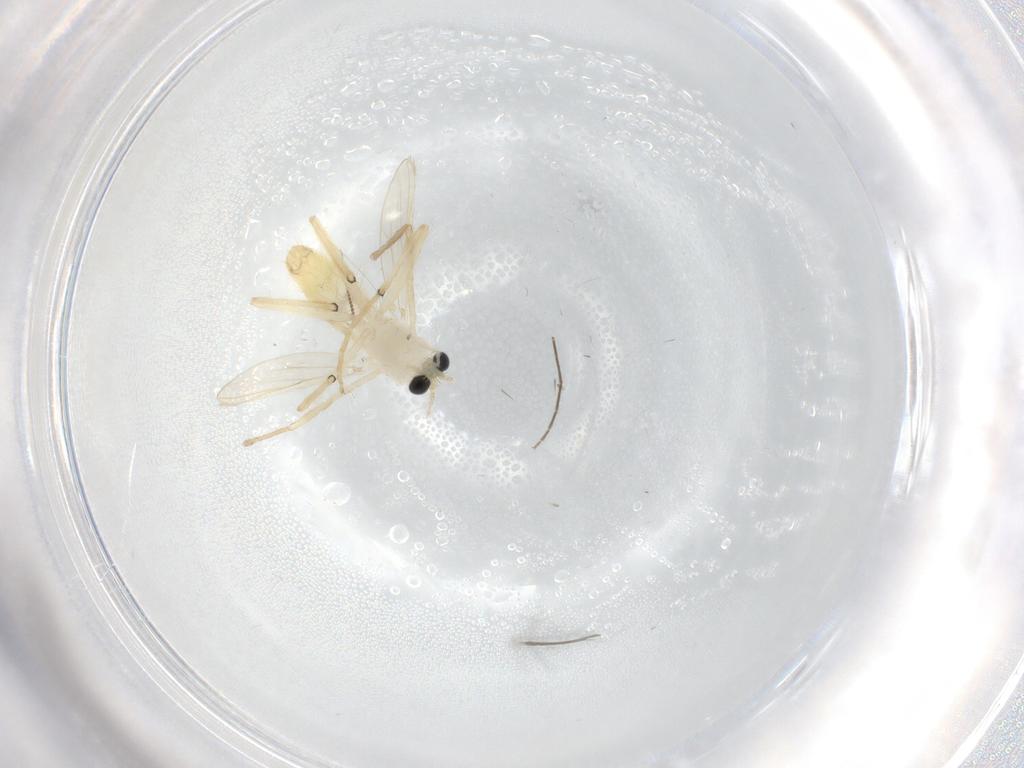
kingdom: Animalia
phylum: Arthropoda
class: Insecta
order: Diptera
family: Chironomidae
